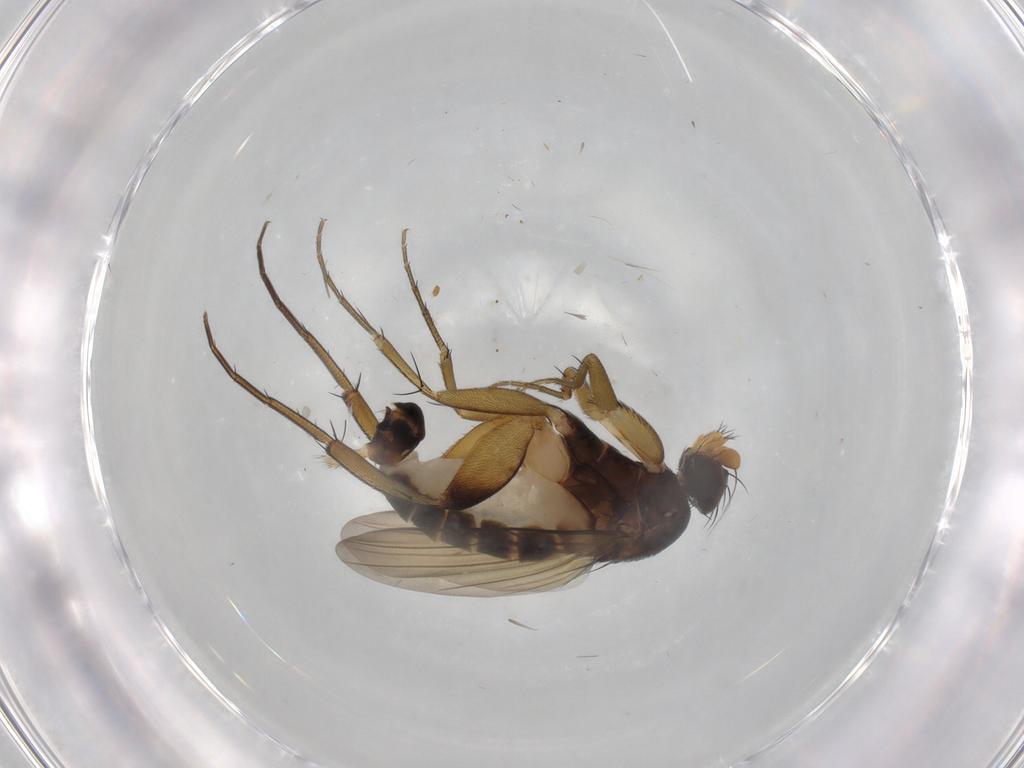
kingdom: Animalia
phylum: Arthropoda
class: Insecta
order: Diptera
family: Phoridae
